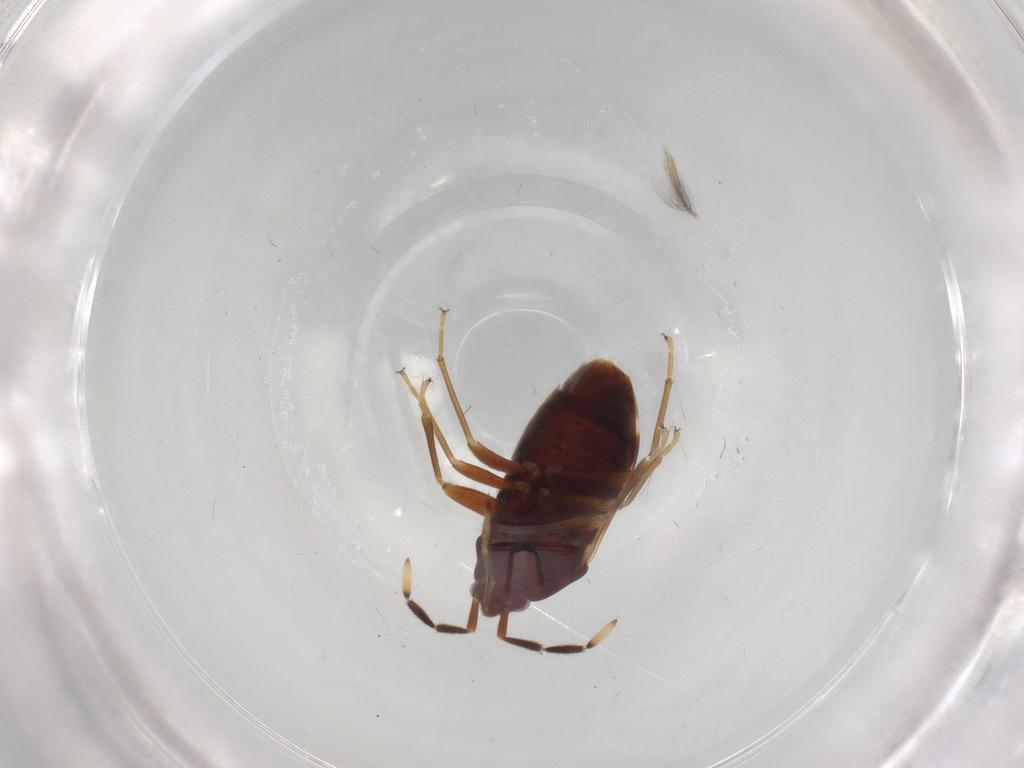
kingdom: Animalia
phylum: Arthropoda
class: Insecta
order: Hemiptera
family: Rhyparochromidae
